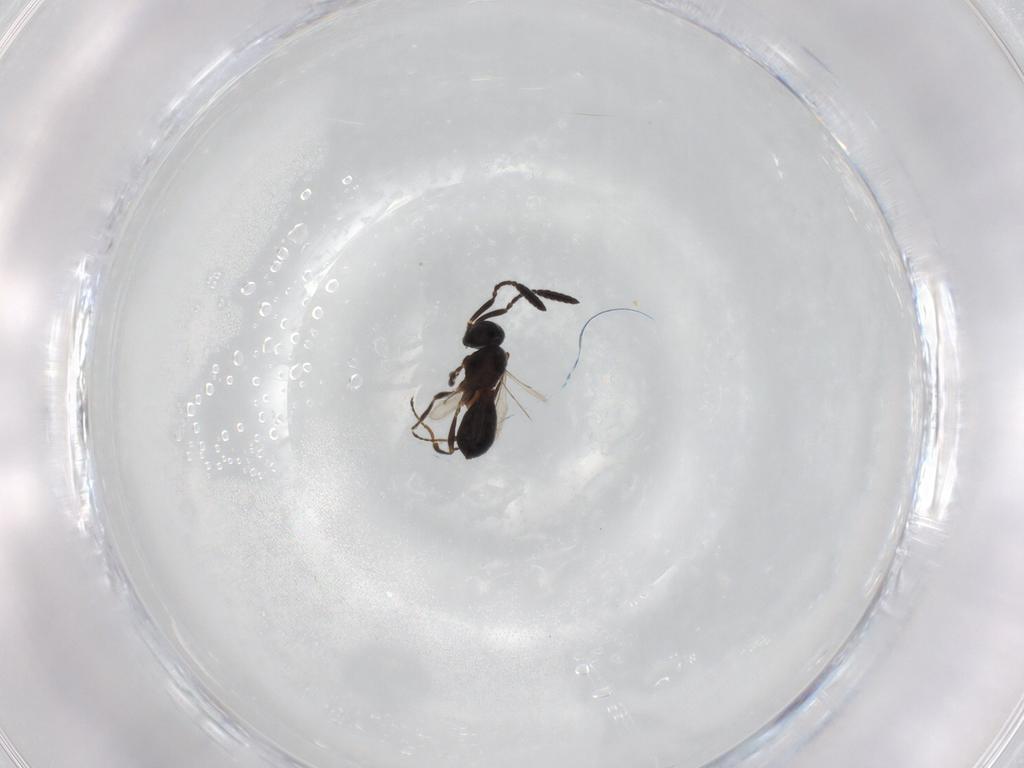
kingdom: Animalia
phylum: Arthropoda
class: Insecta
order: Hymenoptera
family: Scelionidae
